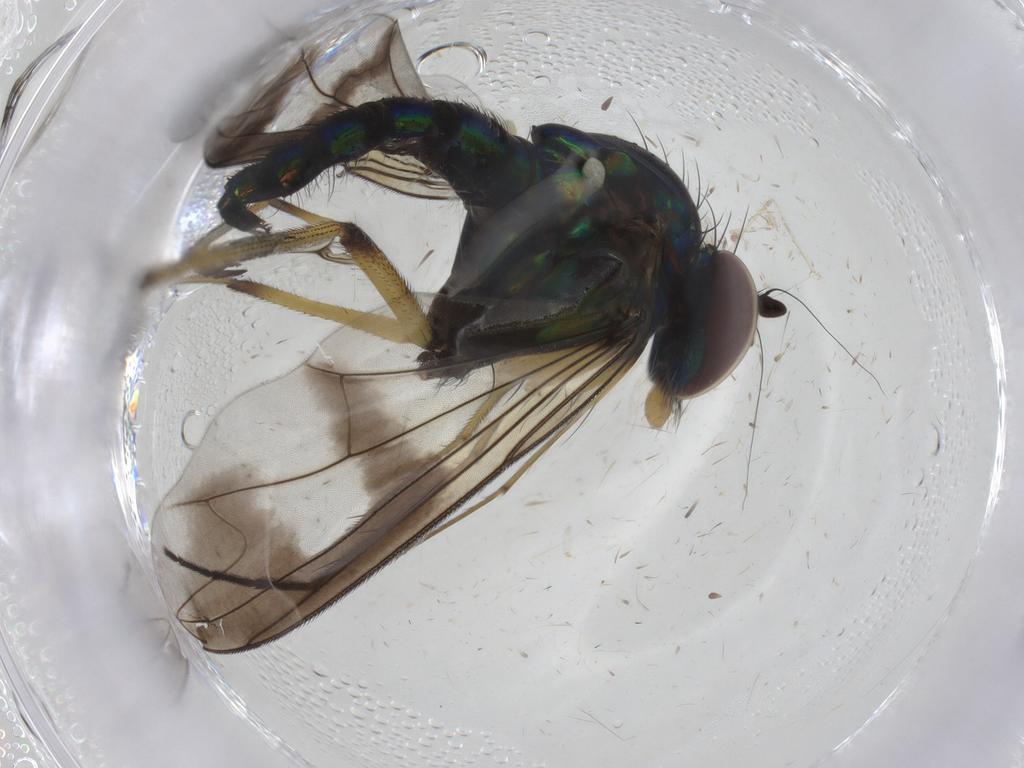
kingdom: Animalia
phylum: Arthropoda
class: Insecta
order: Diptera
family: Dolichopodidae
